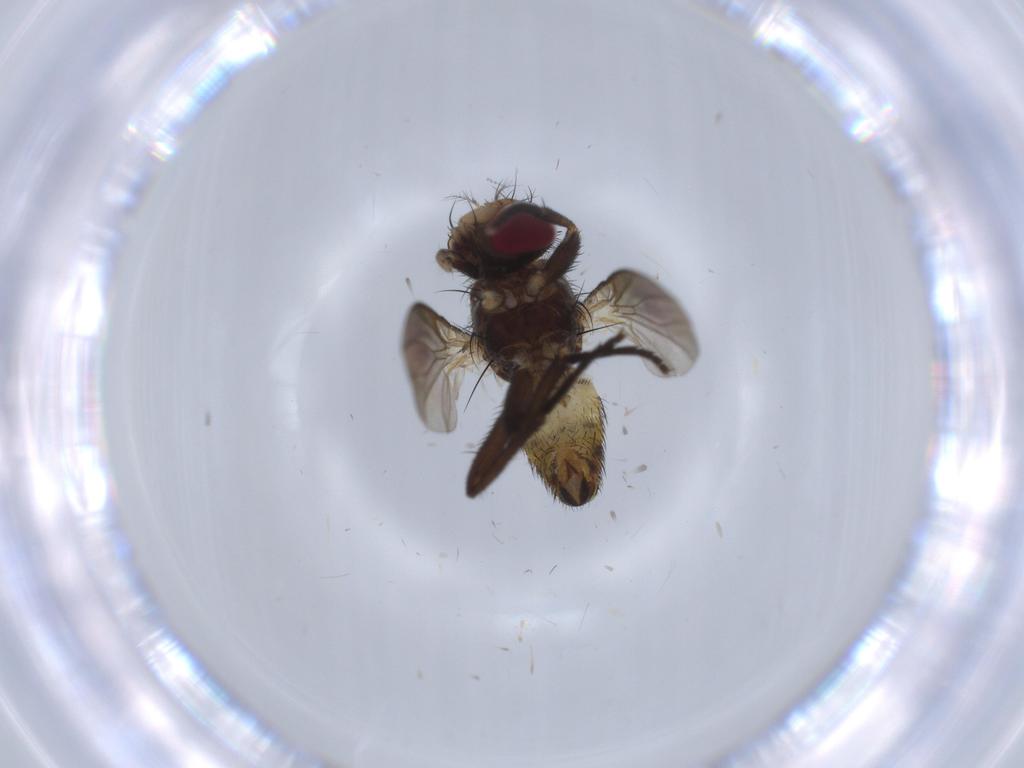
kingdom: Animalia
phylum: Arthropoda
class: Insecta
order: Diptera
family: Anthomyiidae
